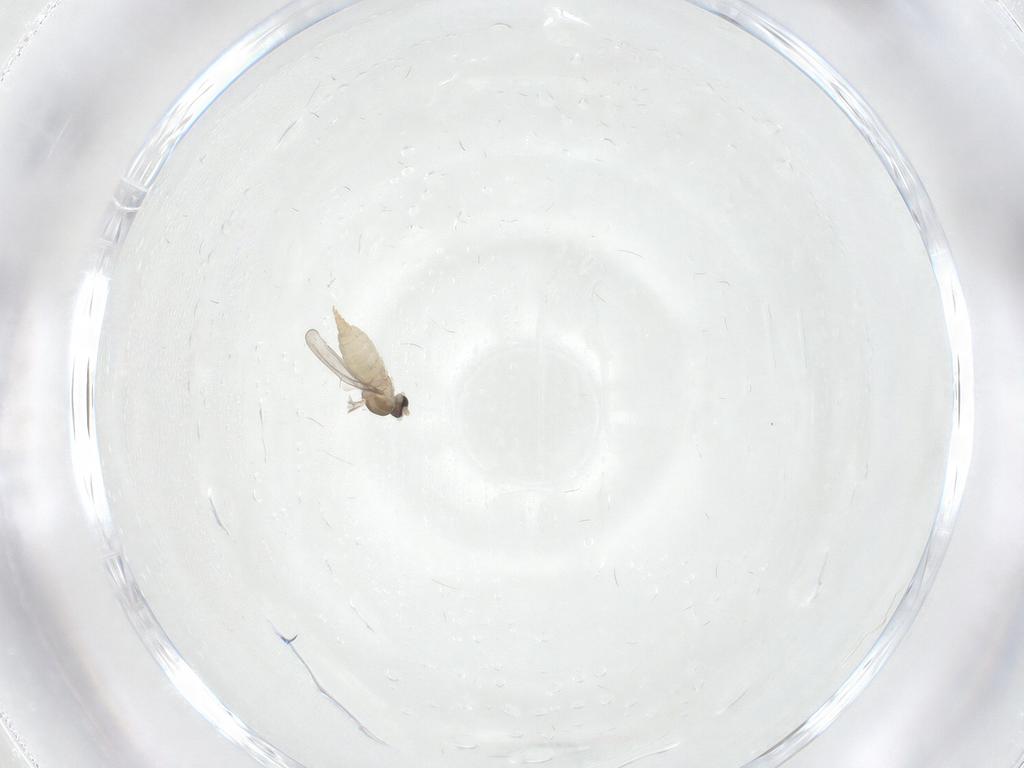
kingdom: Animalia
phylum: Arthropoda
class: Insecta
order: Diptera
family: Cecidomyiidae
